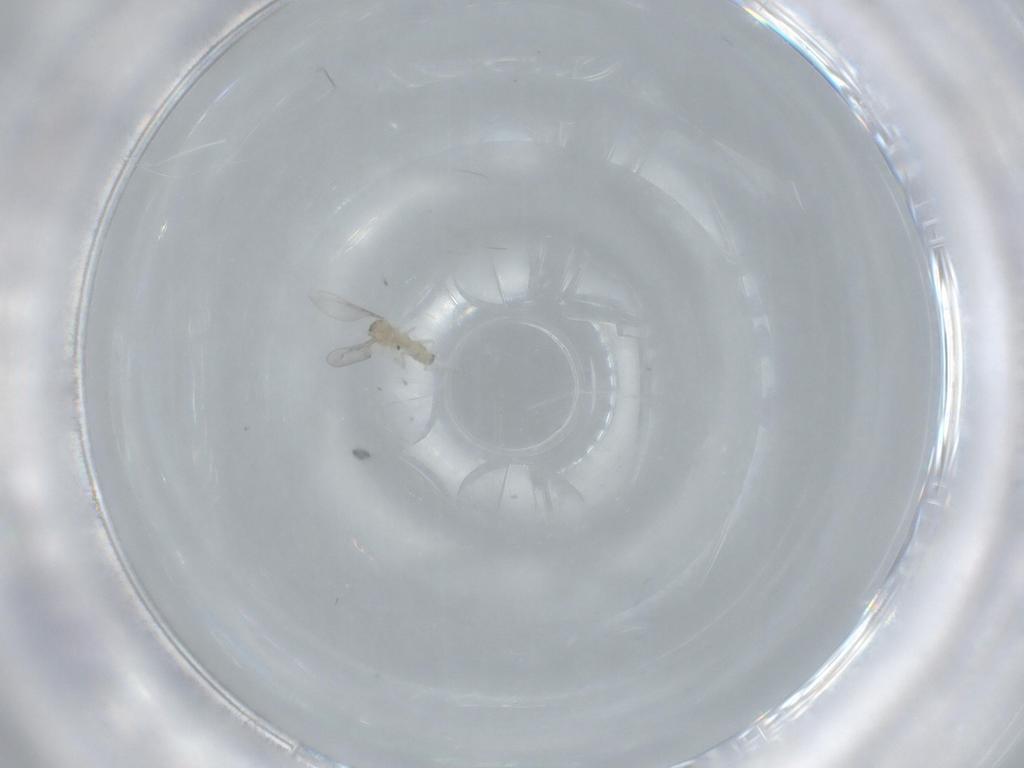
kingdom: Animalia
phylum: Arthropoda
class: Insecta
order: Diptera
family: Cecidomyiidae
